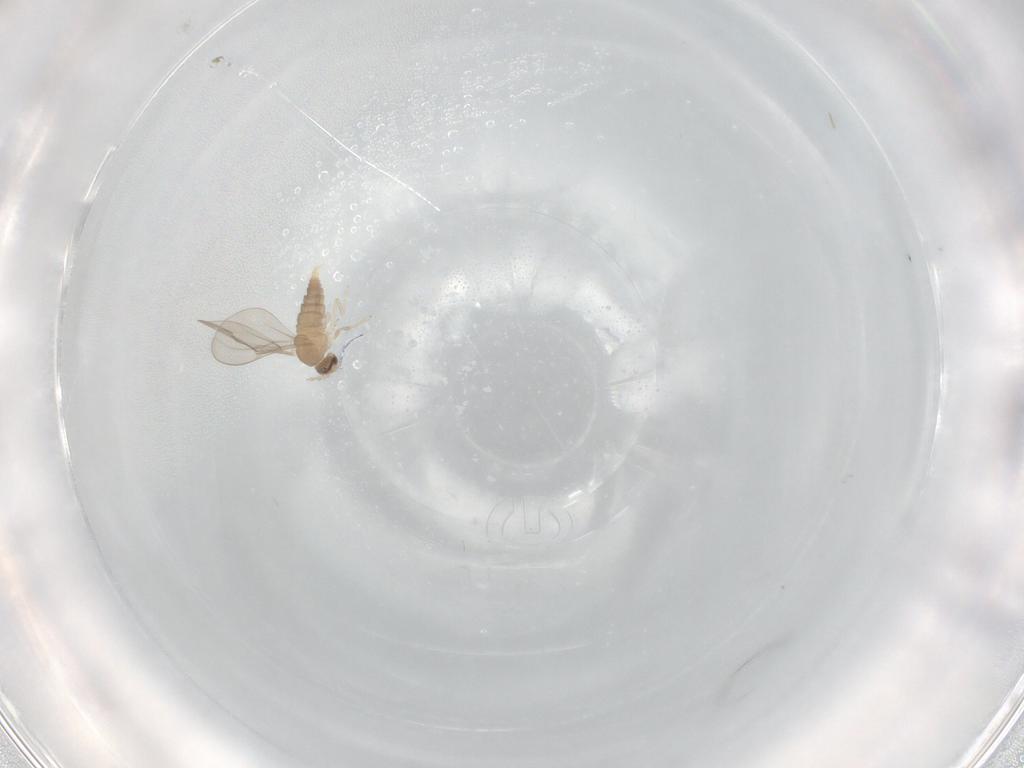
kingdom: Animalia
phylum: Arthropoda
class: Insecta
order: Diptera
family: Cecidomyiidae
